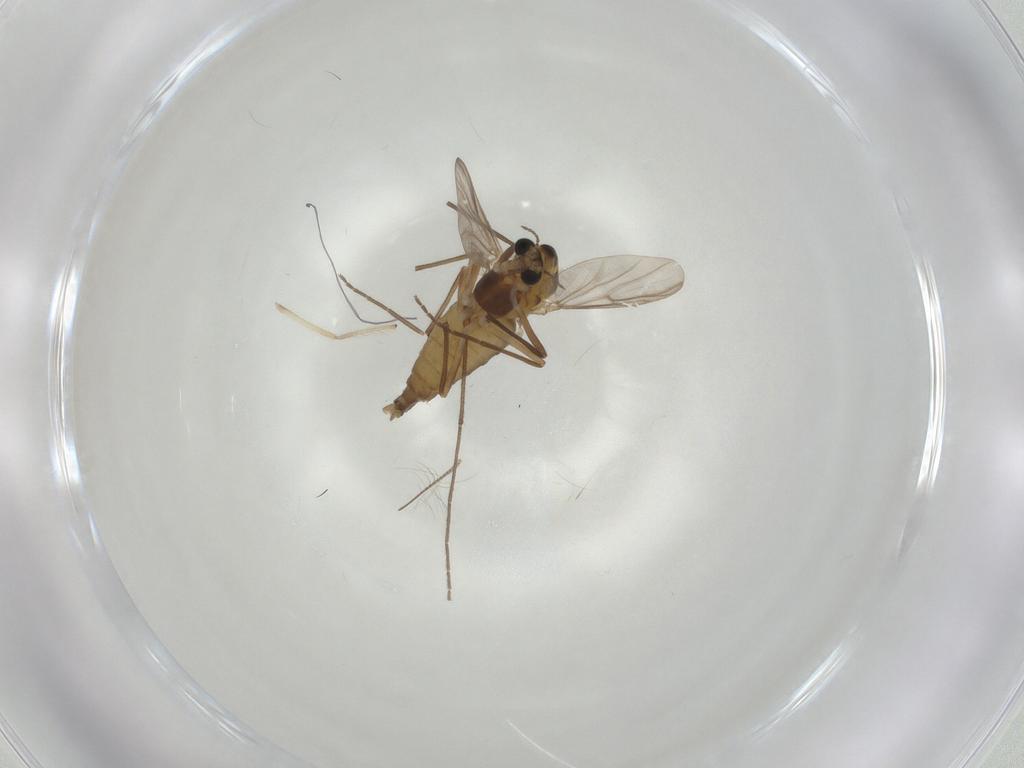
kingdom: Animalia
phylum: Arthropoda
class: Insecta
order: Diptera
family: Chironomidae
